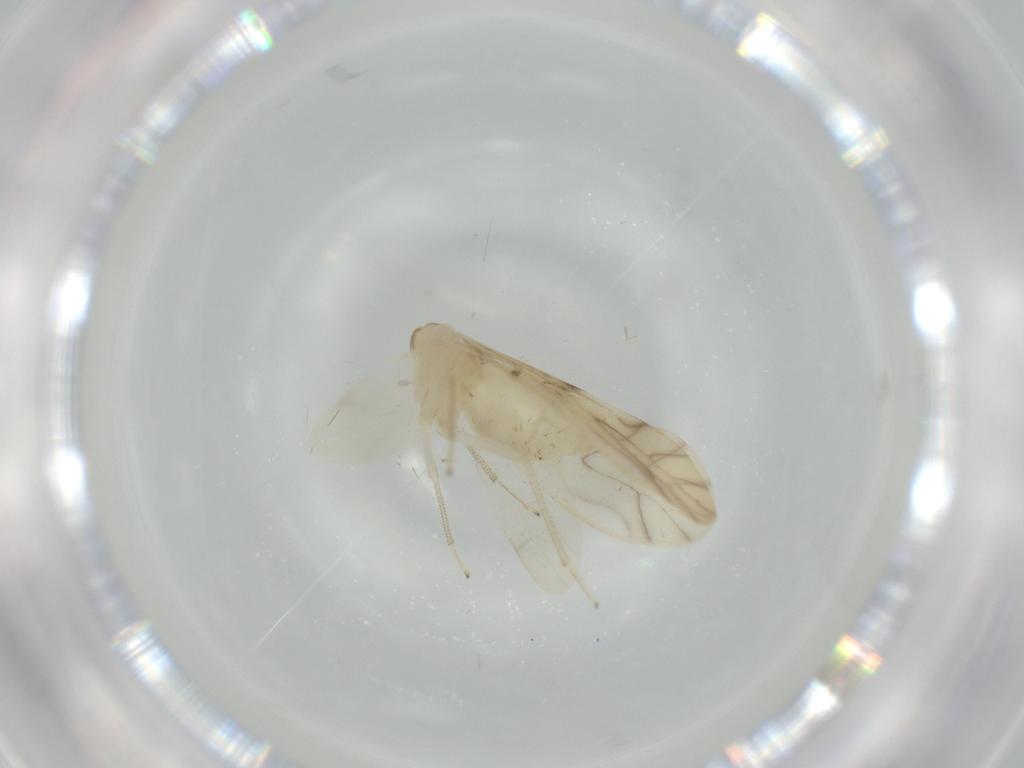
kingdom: Animalia
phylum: Arthropoda
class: Insecta
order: Psocodea
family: Caeciliusidae
